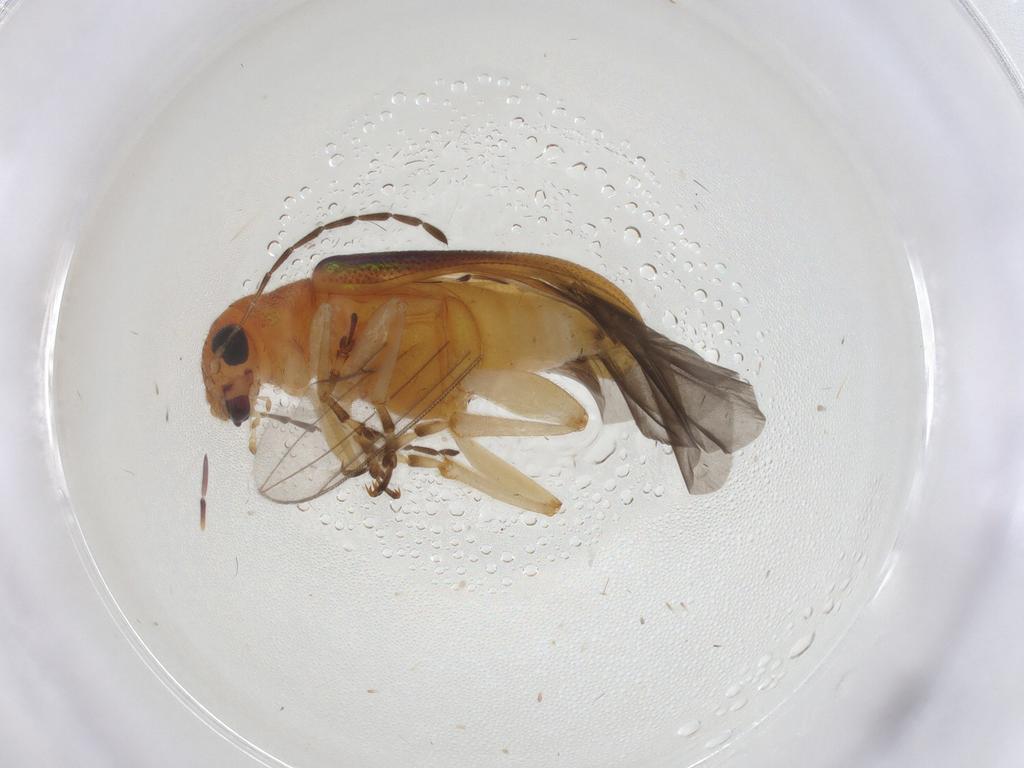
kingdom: Animalia
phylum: Arthropoda
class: Insecta
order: Coleoptera
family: Chrysomelidae
